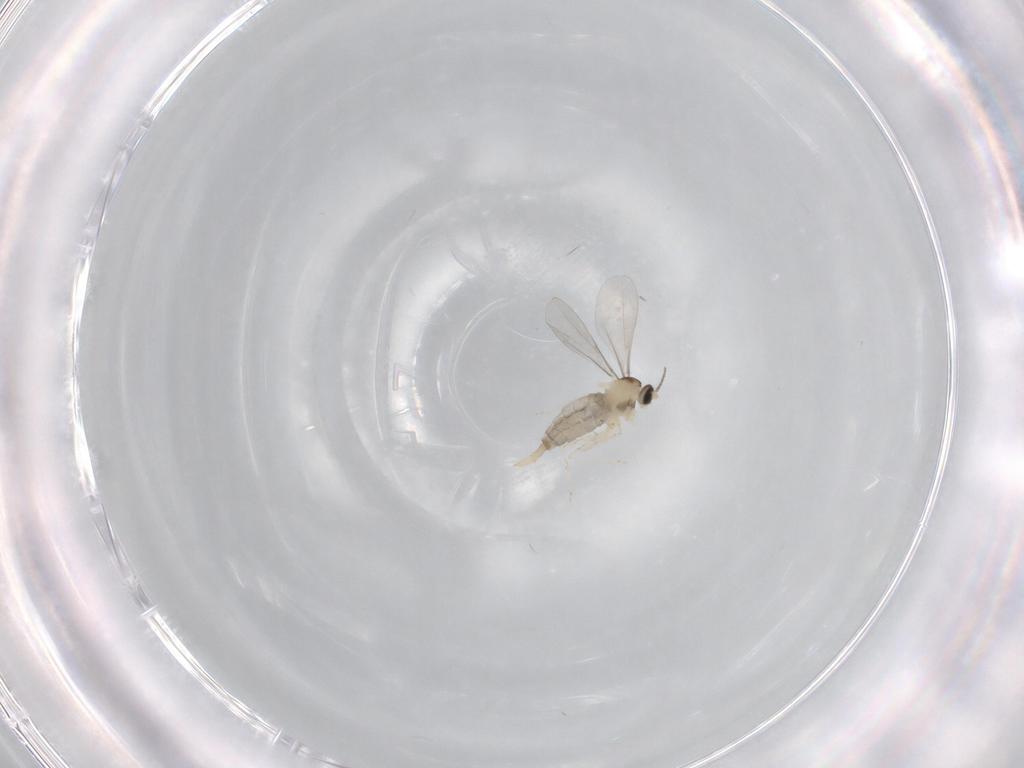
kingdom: Animalia
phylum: Arthropoda
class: Insecta
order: Diptera
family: Cecidomyiidae
